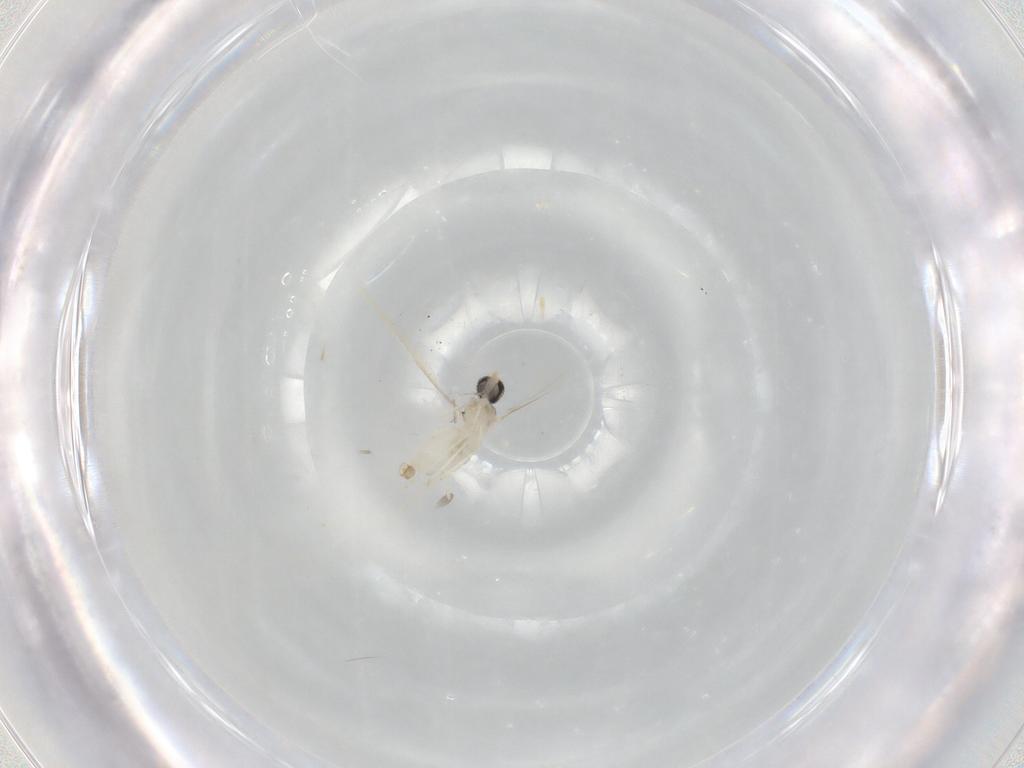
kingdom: Animalia
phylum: Arthropoda
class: Insecta
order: Diptera
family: Cecidomyiidae
